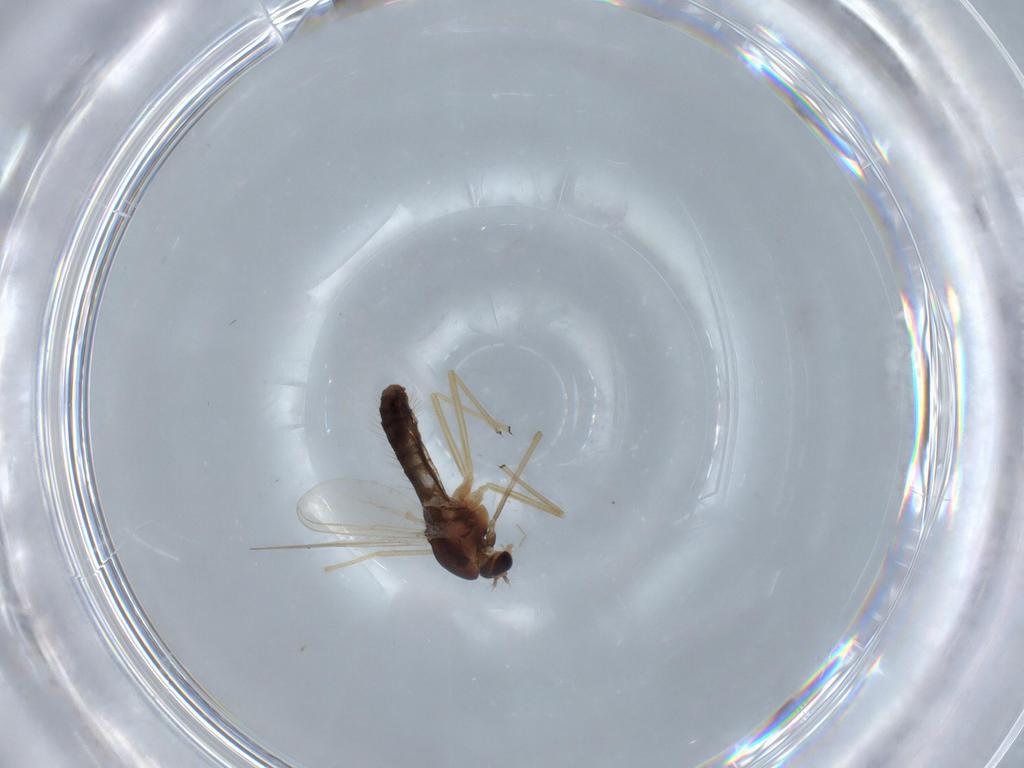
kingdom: Animalia
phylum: Arthropoda
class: Insecta
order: Diptera
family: Chironomidae
